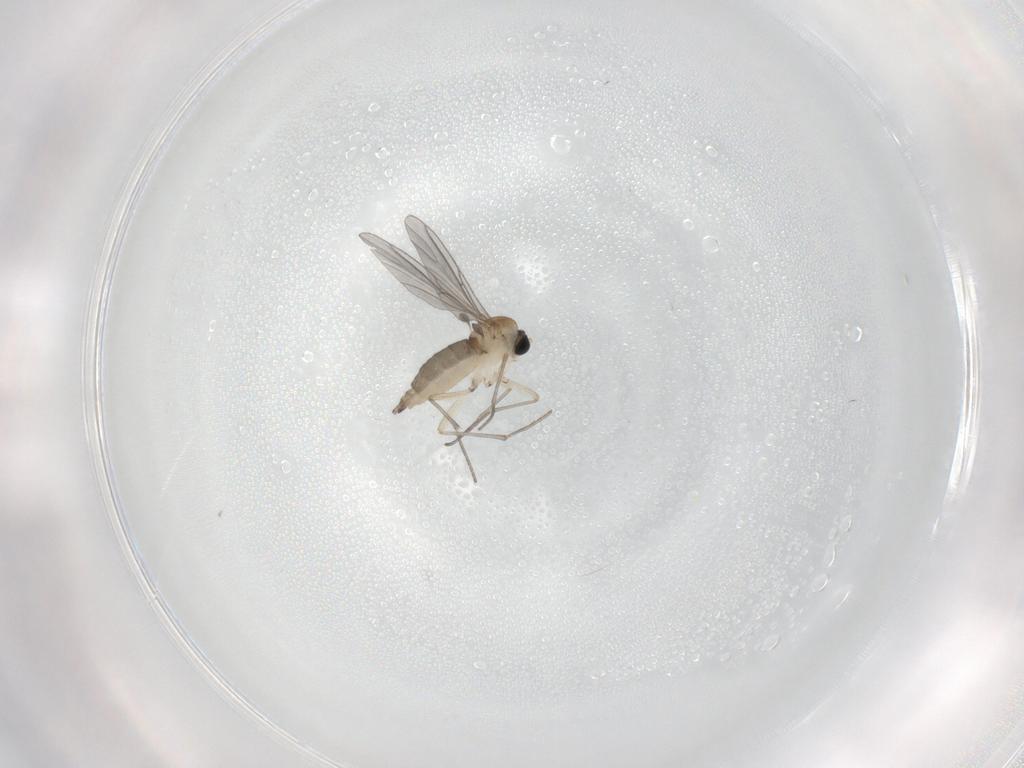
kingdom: Animalia
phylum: Arthropoda
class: Insecta
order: Diptera
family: Sciaridae
